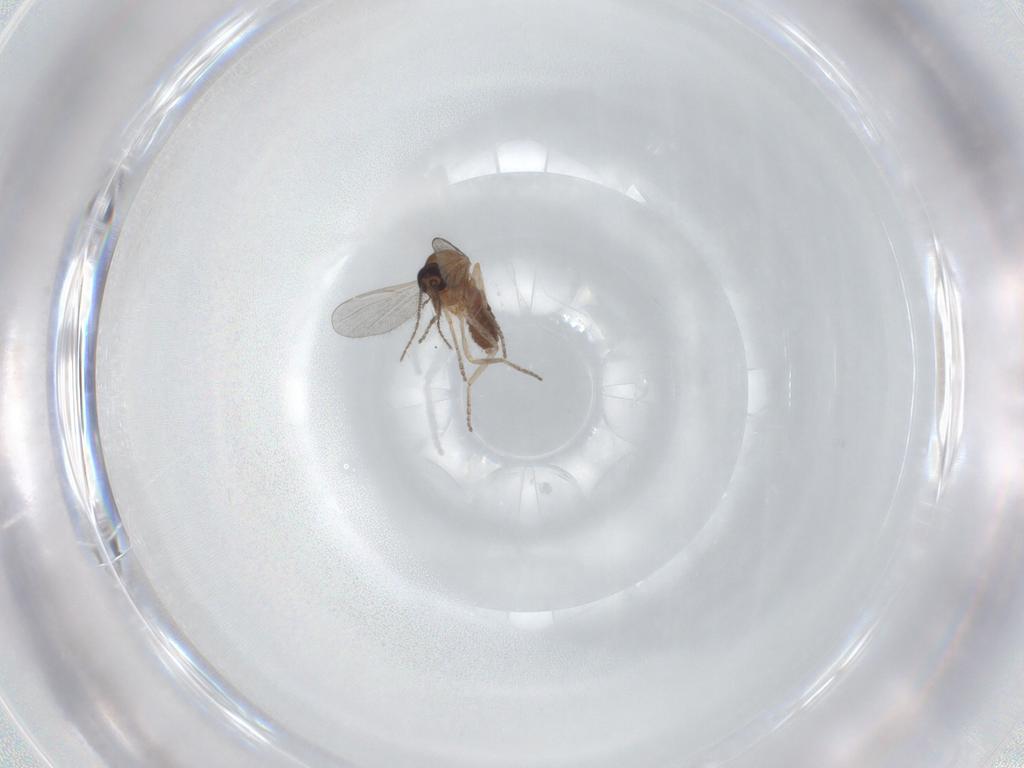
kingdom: Animalia
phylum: Arthropoda
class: Insecta
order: Diptera
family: Ceratopogonidae
